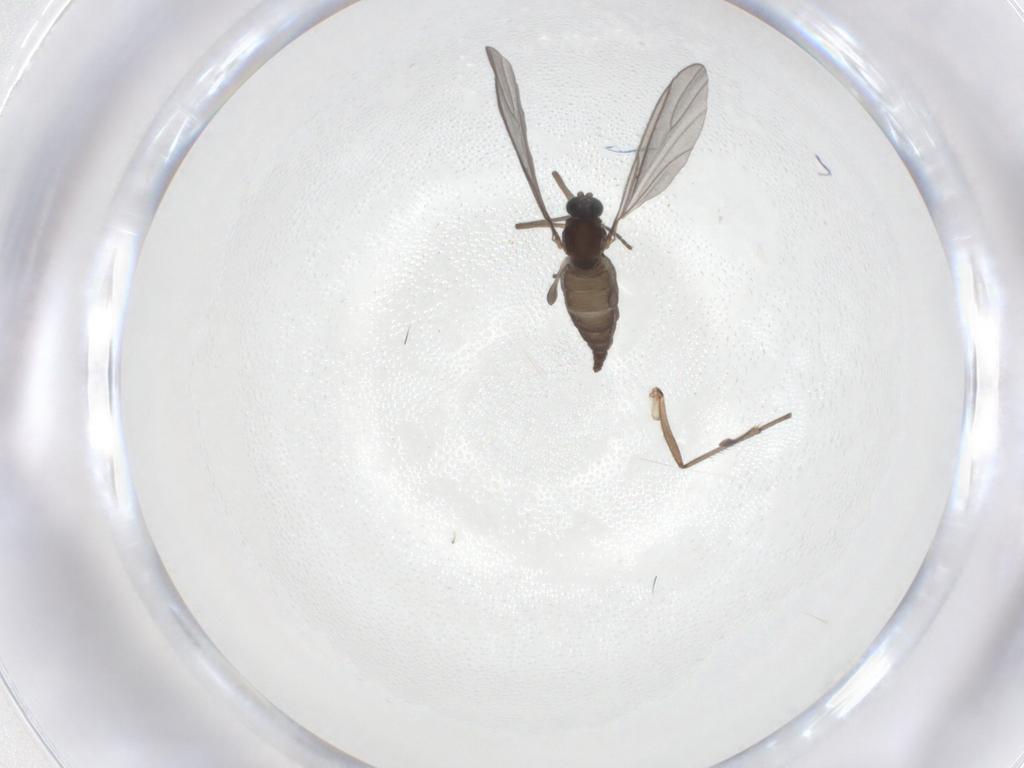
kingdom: Animalia
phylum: Arthropoda
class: Insecta
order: Diptera
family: Sciaridae
